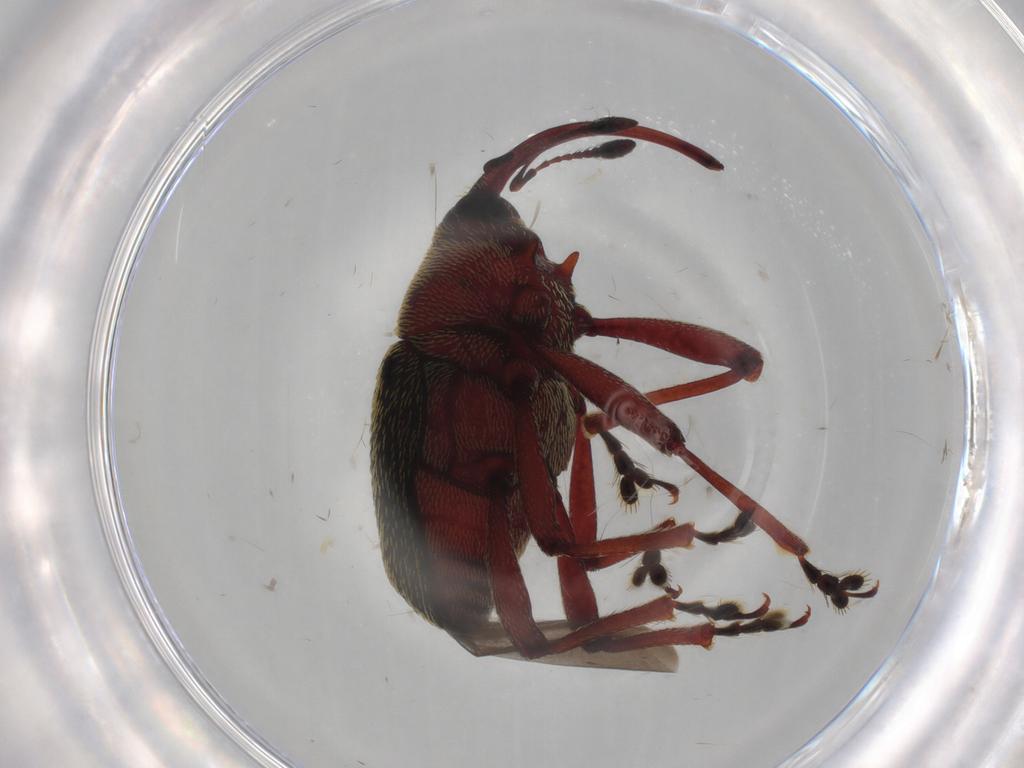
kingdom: Animalia
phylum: Arthropoda
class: Insecta
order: Coleoptera
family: Curculionidae
